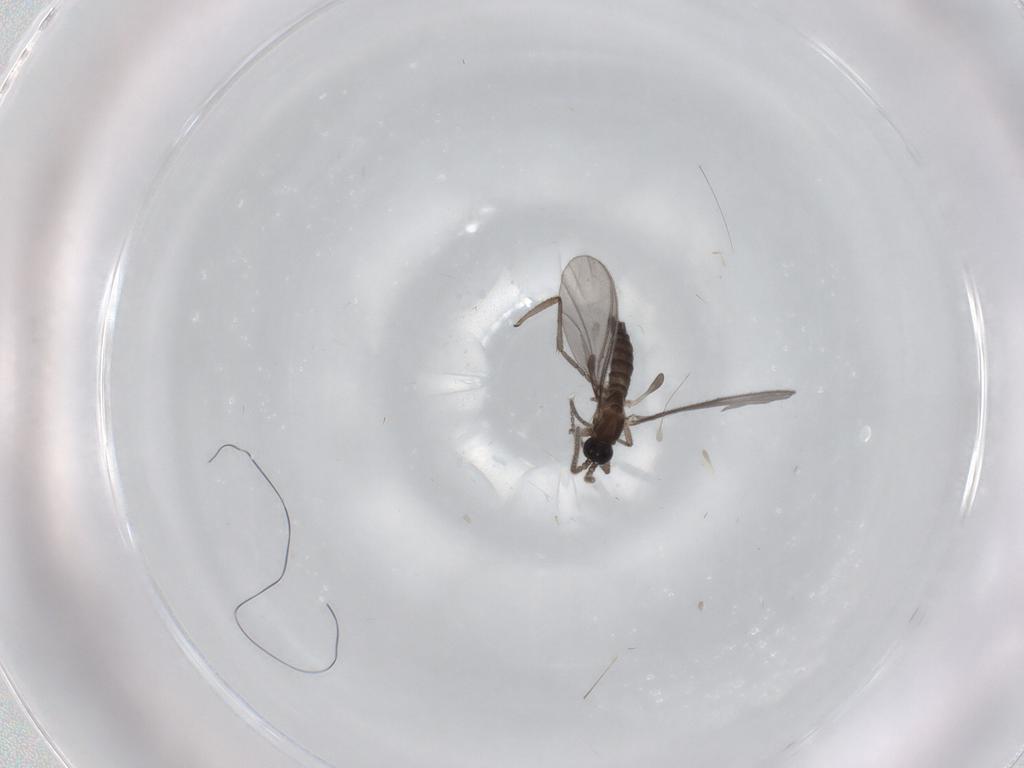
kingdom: Animalia
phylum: Arthropoda
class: Insecta
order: Diptera
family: Sciaridae
